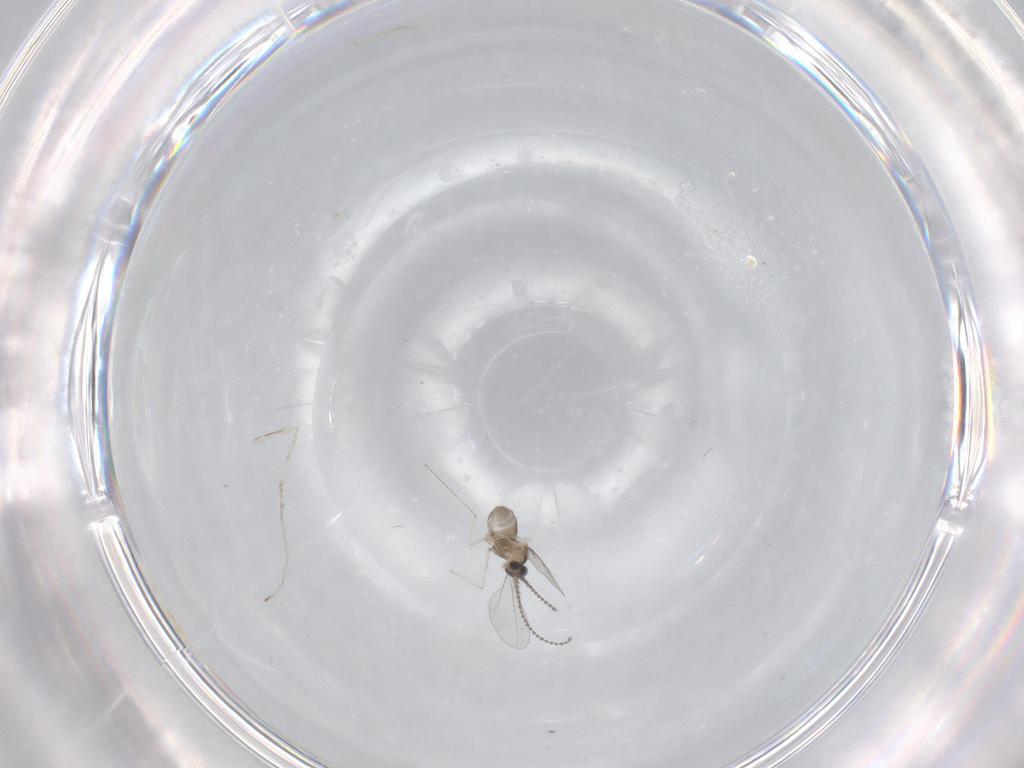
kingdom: Animalia
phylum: Arthropoda
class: Insecta
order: Diptera
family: Cecidomyiidae
